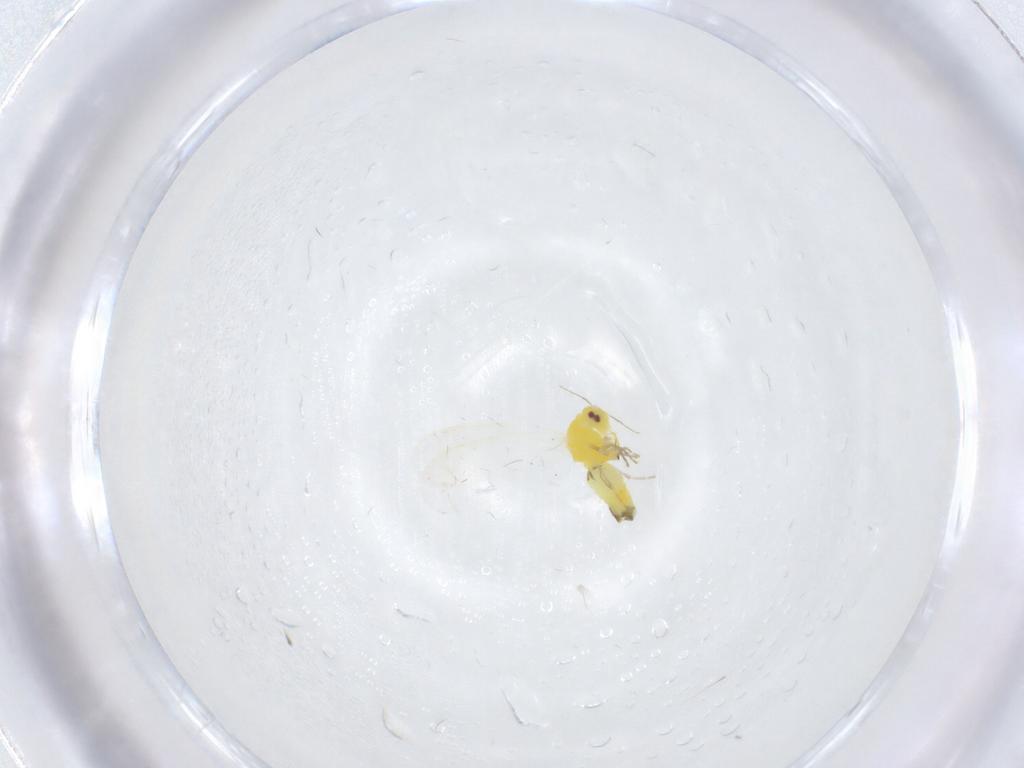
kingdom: Animalia
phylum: Arthropoda
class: Insecta
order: Hemiptera
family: Aleyrodidae
